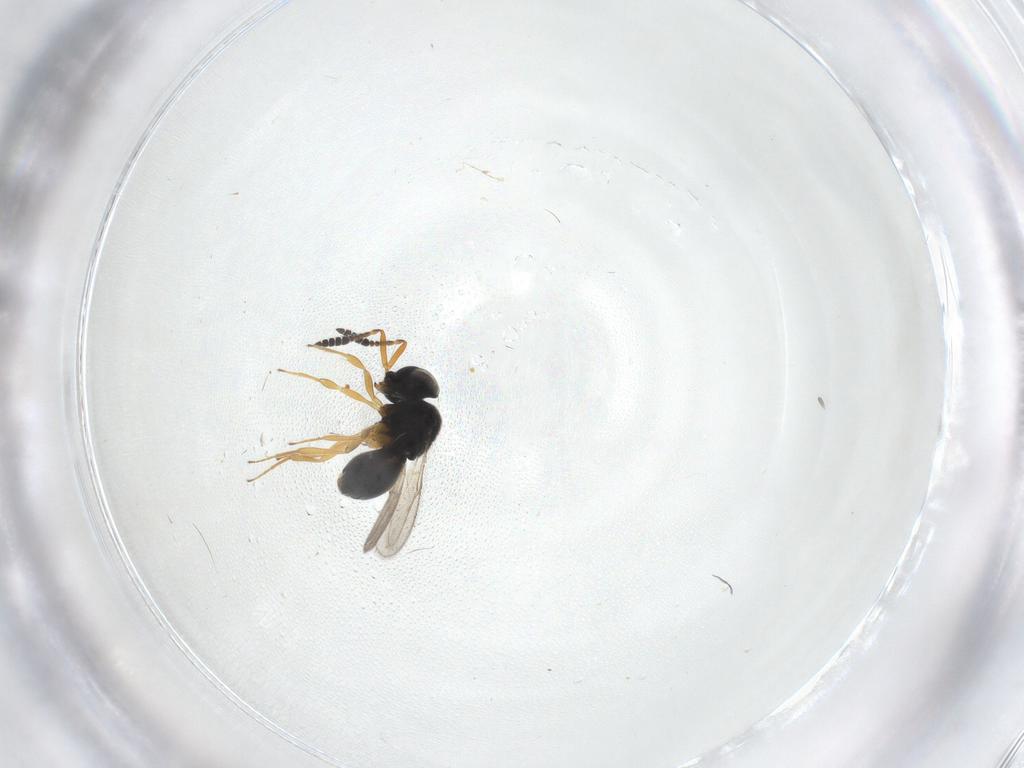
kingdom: Animalia
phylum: Arthropoda
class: Insecta
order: Hymenoptera
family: Scelionidae
